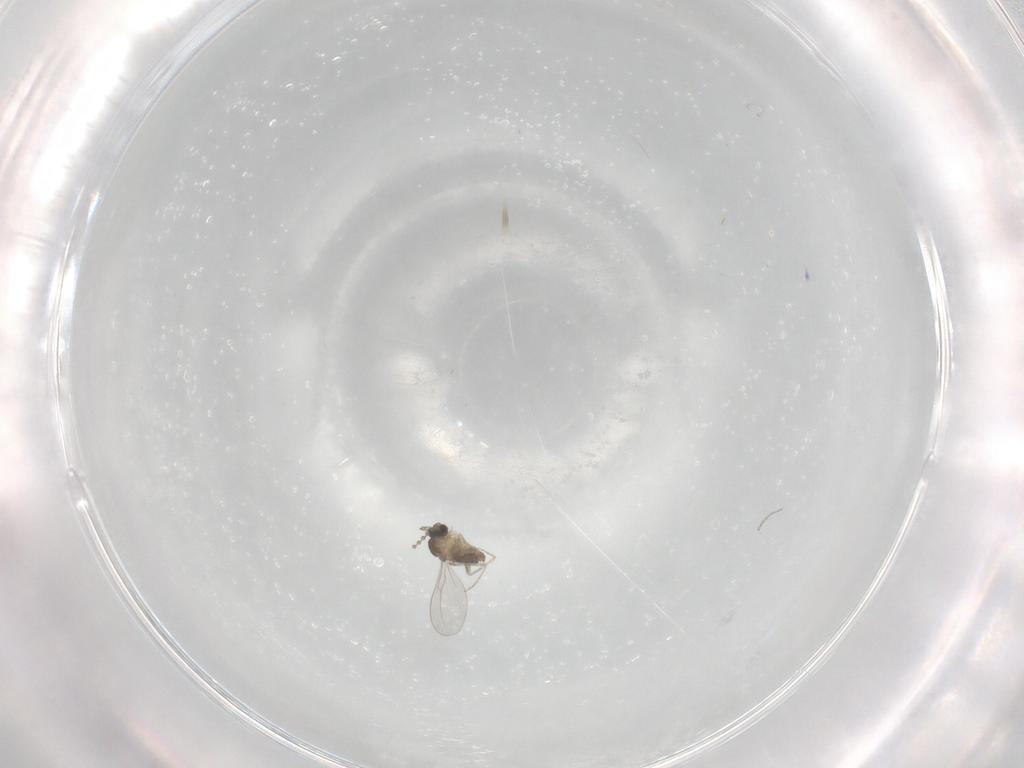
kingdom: Animalia
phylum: Arthropoda
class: Insecta
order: Diptera
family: Cecidomyiidae
